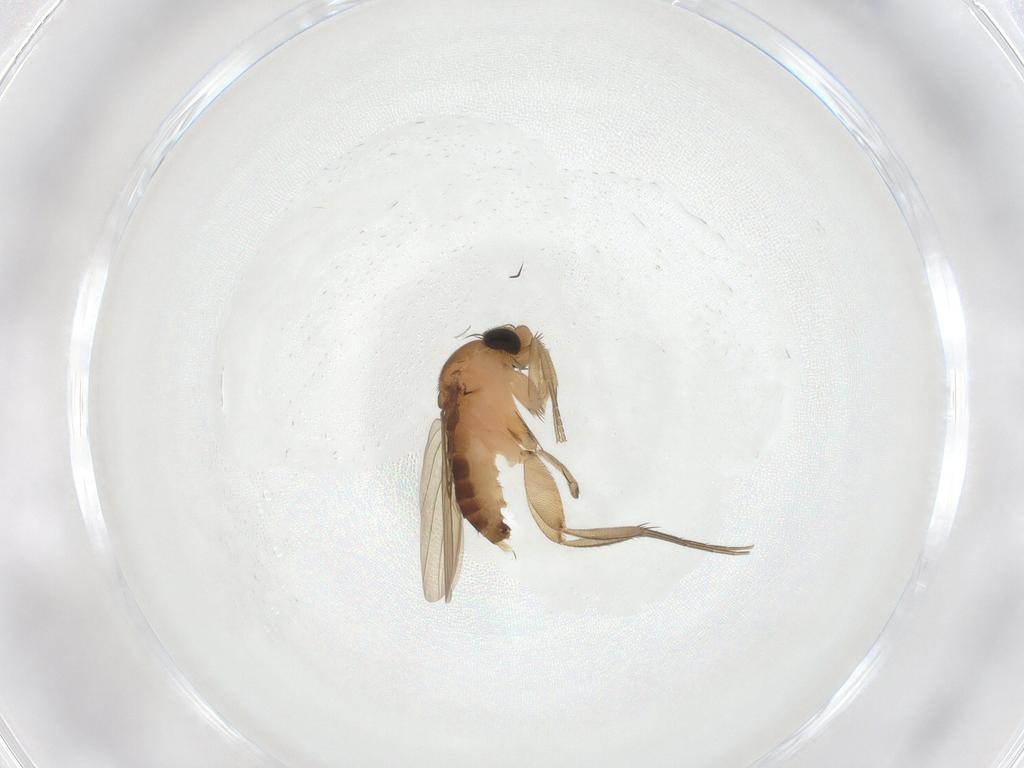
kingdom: Animalia
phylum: Arthropoda
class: Insecta
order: Diptera
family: Phoridae
